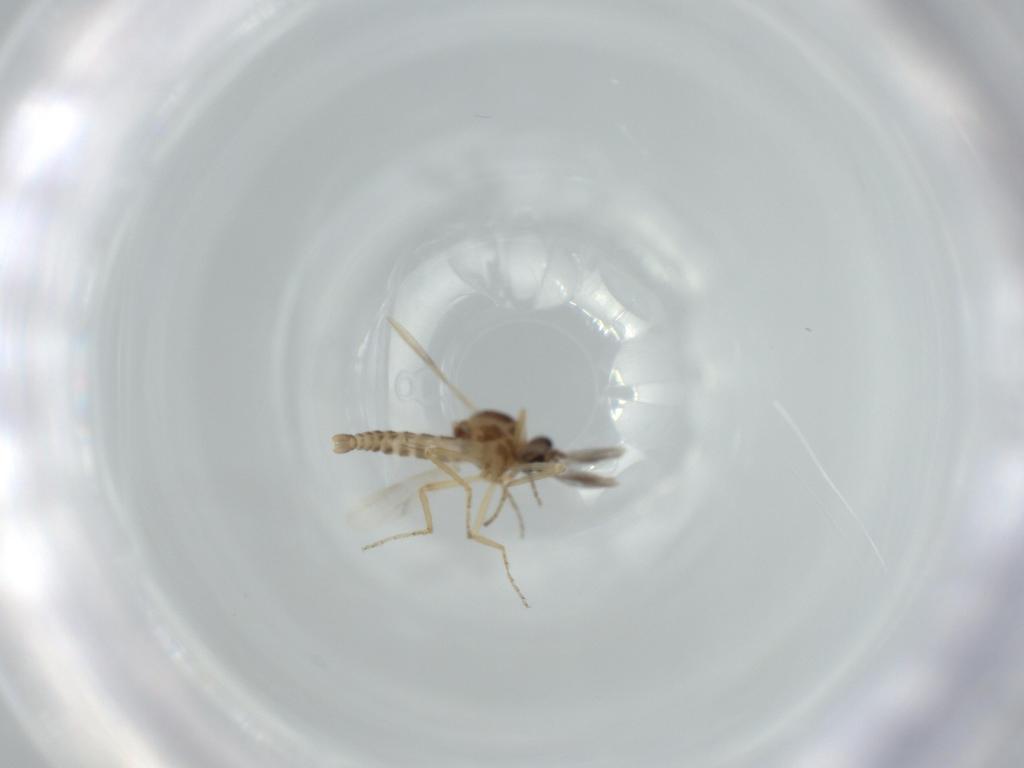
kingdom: Animalia
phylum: Arthropoda
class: Insecta
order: Diptera
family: Ceratopogonidae
